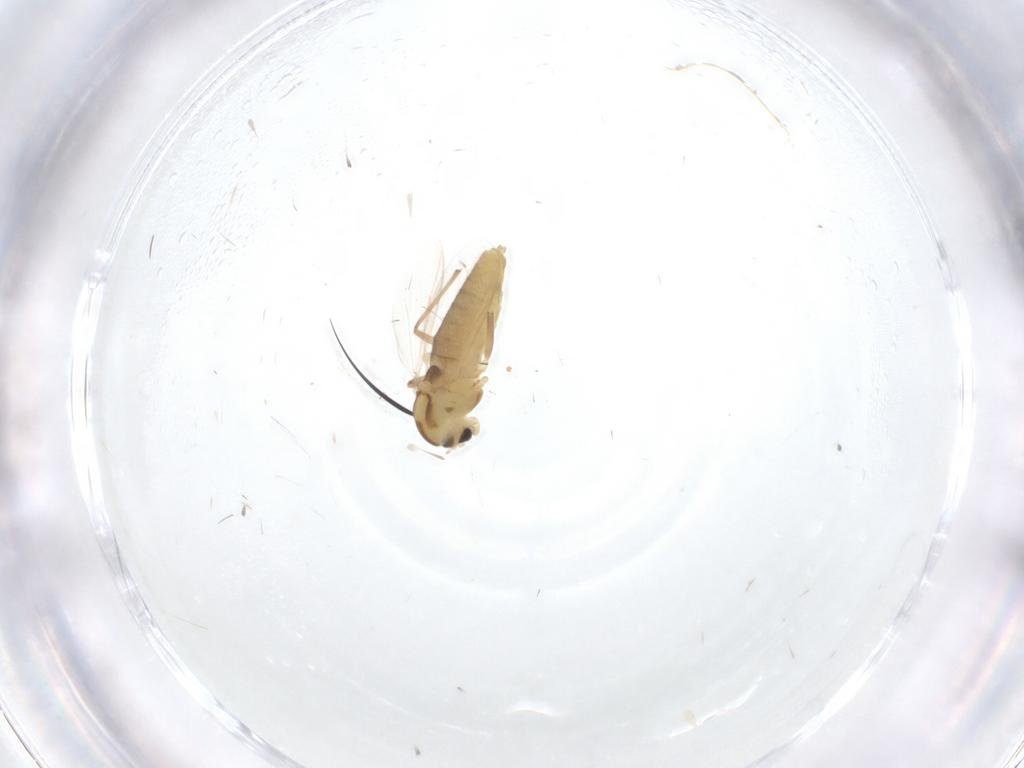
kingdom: Animalia
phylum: Arthropoda
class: Insecta
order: Diptera
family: Chironomidae
